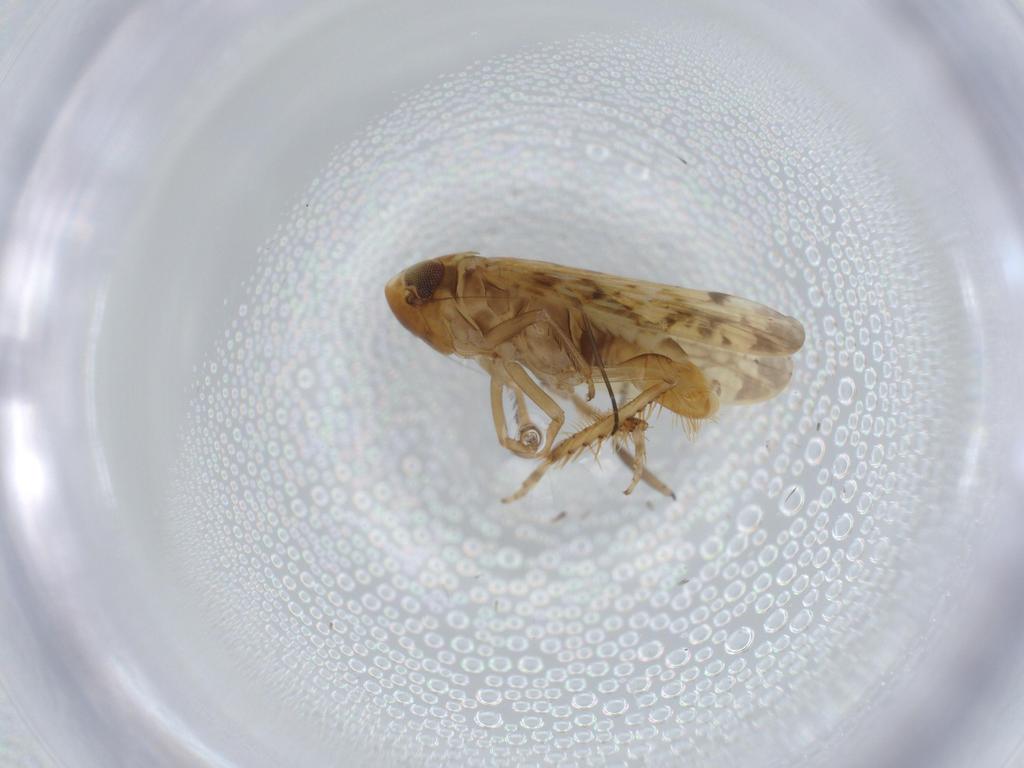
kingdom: Animalia
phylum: Arthropoda
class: Insecta
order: Hemiptera
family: Cicadellidae
